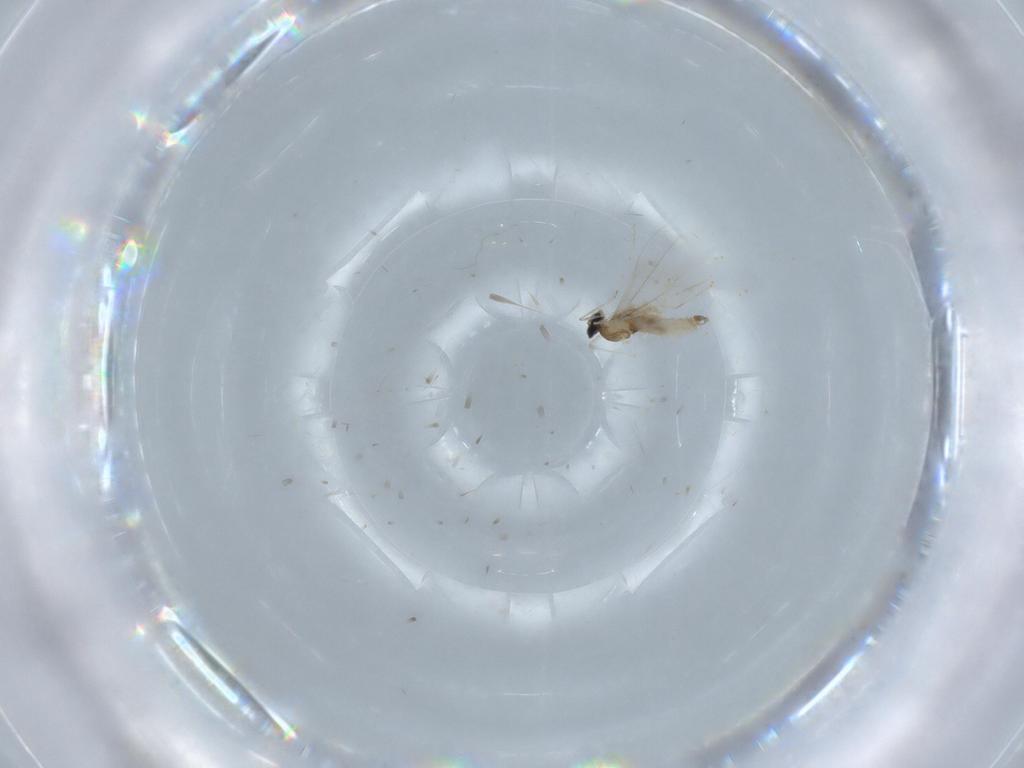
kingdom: Animalia
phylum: Arthropoda
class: Insecta
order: Diptera
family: Cecidomyiidae
